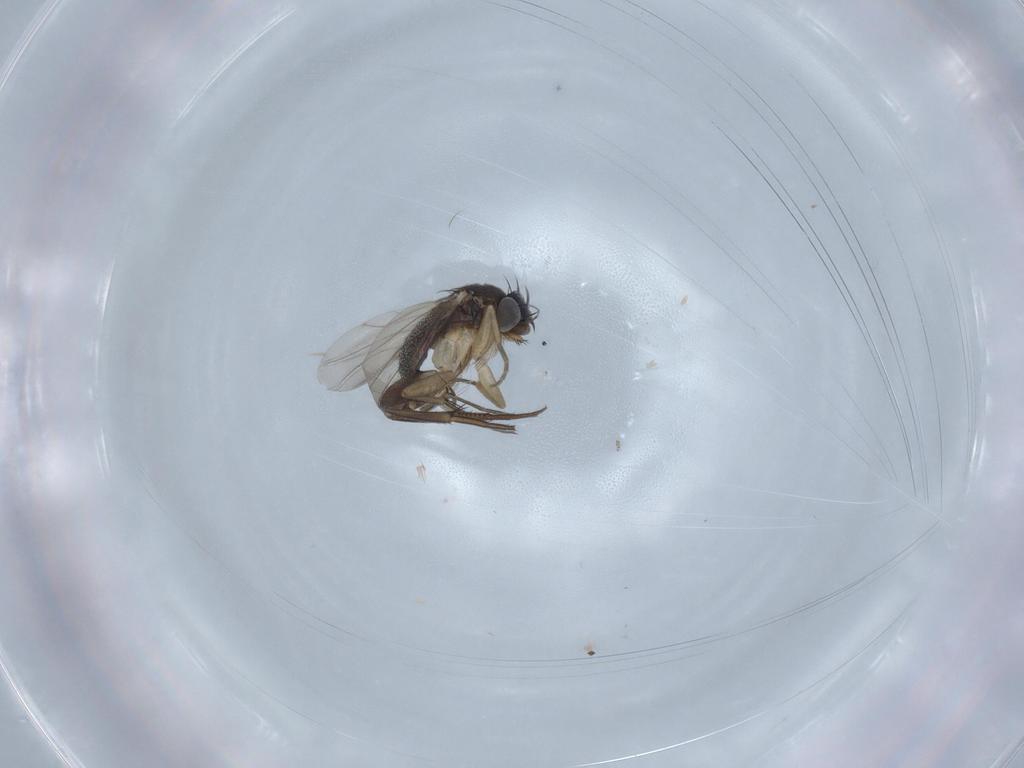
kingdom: Animalia
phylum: Arthropoda
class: Insecta
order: Diptera
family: Phoridae
